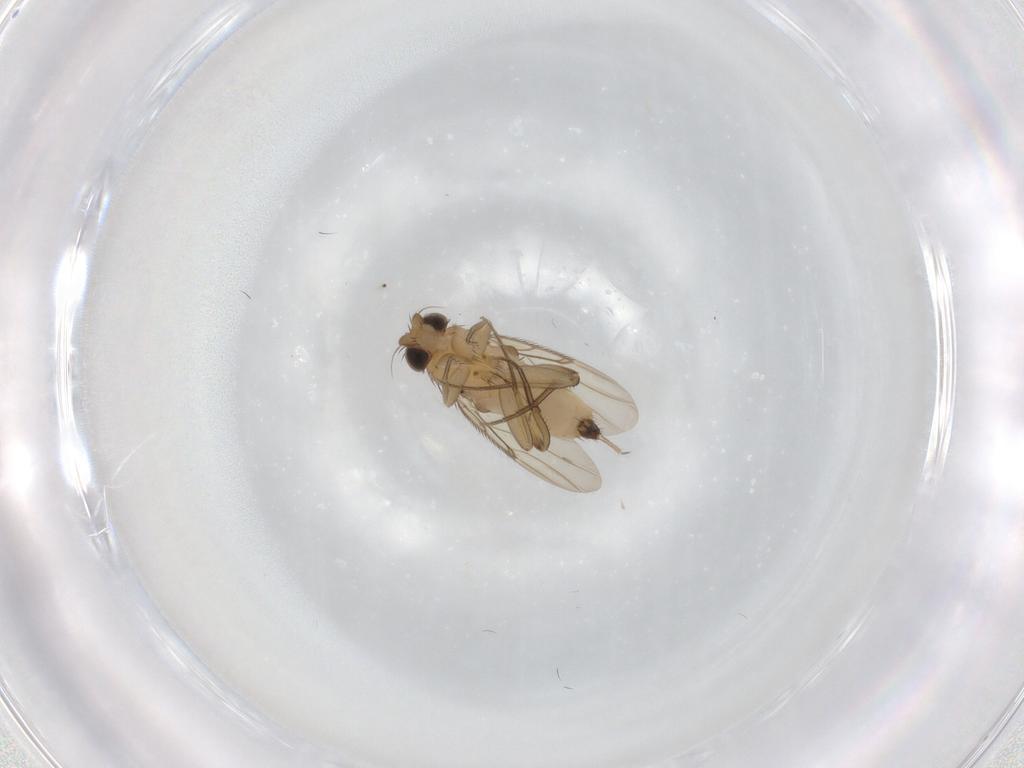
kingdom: Animalia
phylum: Arthropoda
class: Insecta
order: Diptera
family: Phoridae
